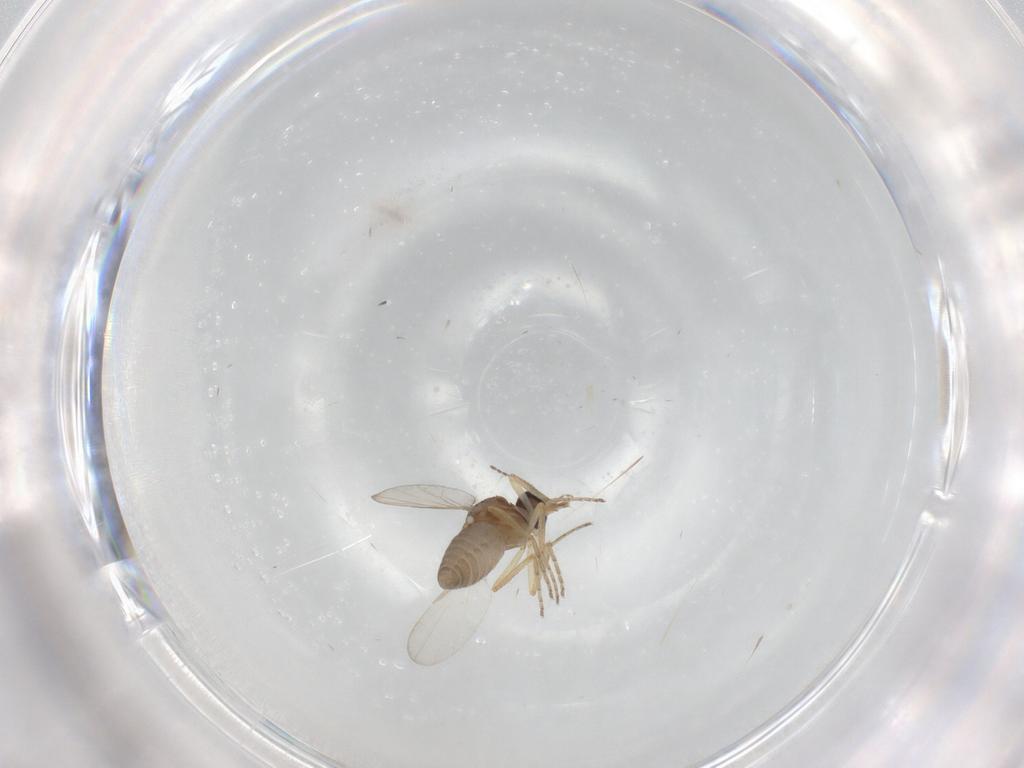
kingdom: Animalia
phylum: Arthropoda
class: Insecta
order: Diptera
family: Ceratopogonidae
